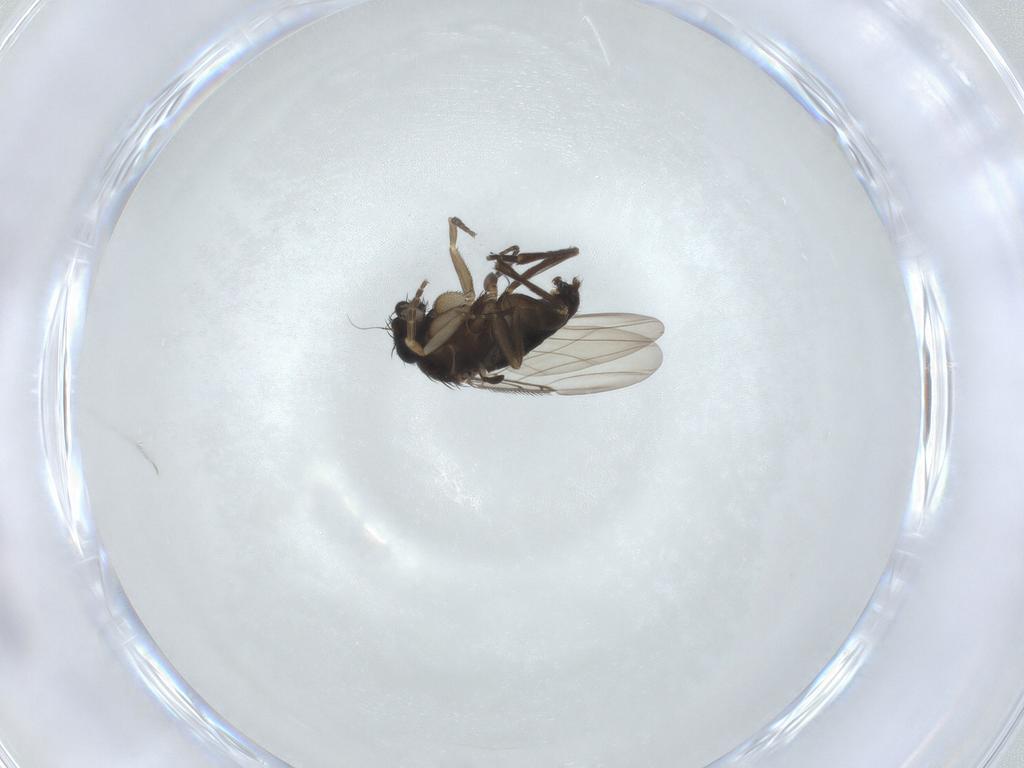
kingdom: Animalia
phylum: Arthropoda
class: Insecta
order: Diptera
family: Phoridae
